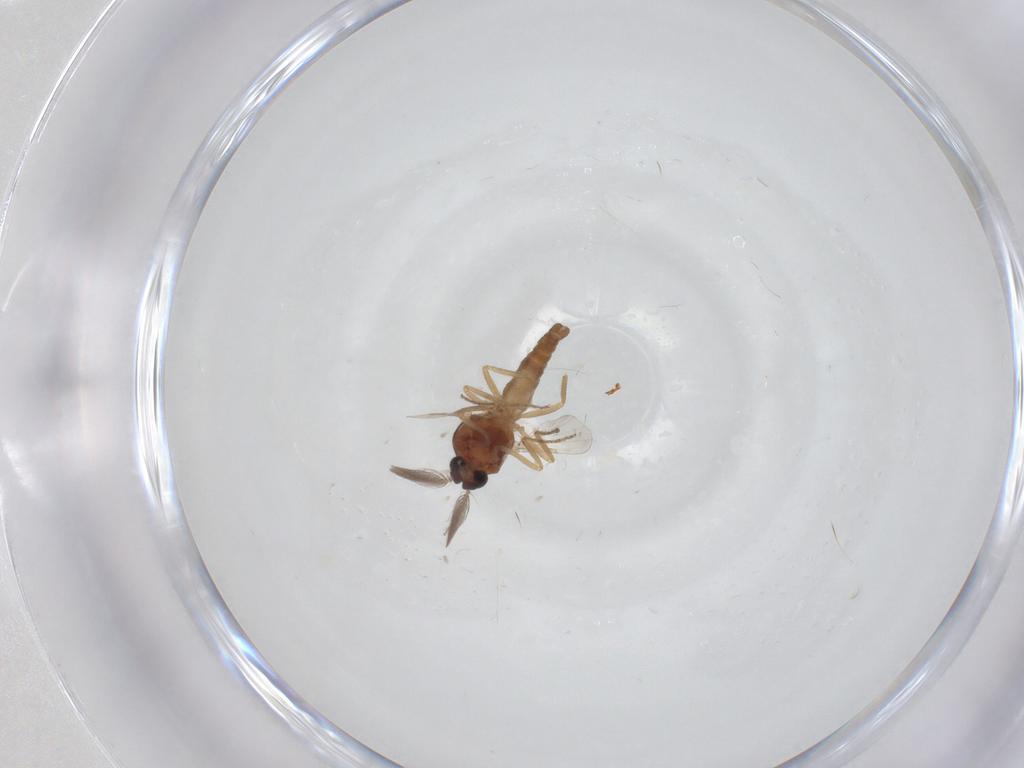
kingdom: Animalia
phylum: Arthropoda
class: Insecta
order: Diptera
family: Ceratopogonidae
